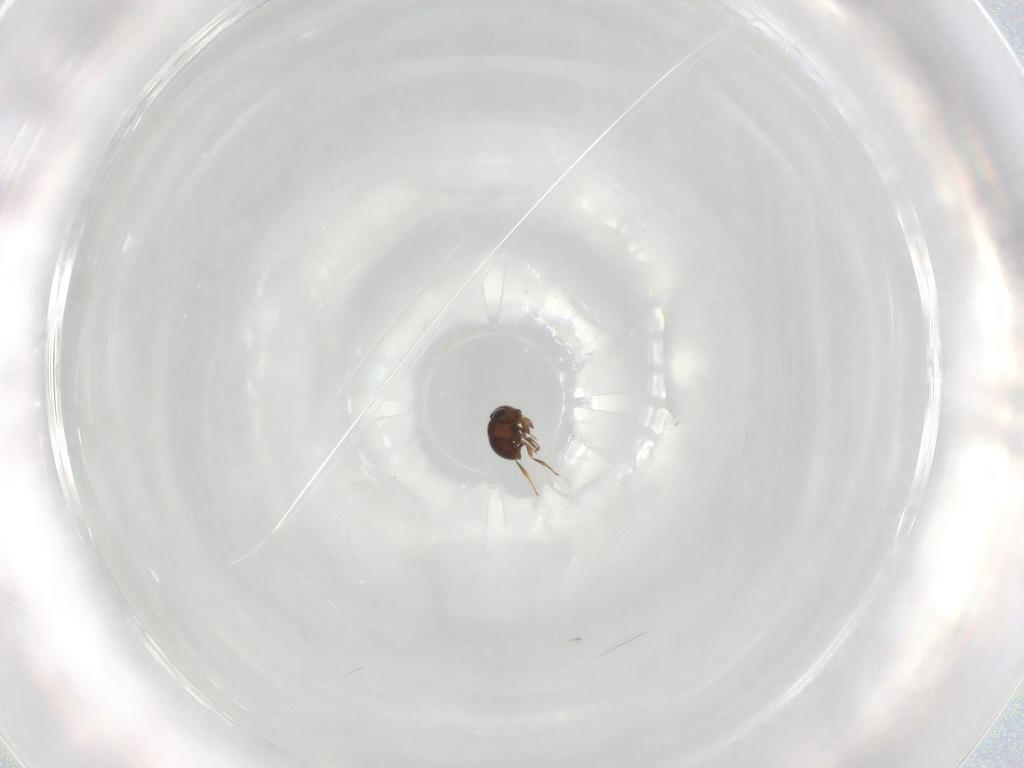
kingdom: Animalia
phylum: Arthropoda
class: Insecta
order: Hymenoptera
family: Scelionidae
